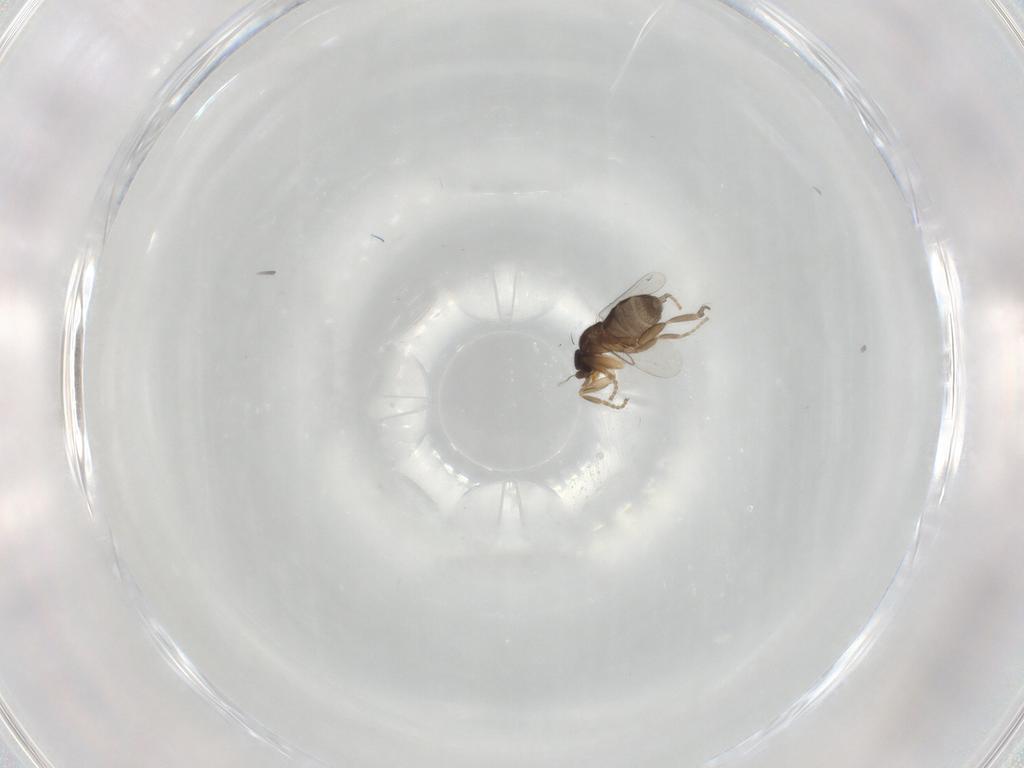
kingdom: Animalia
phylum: Arthropoda
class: Insecta
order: Diptera
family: Phoridae
